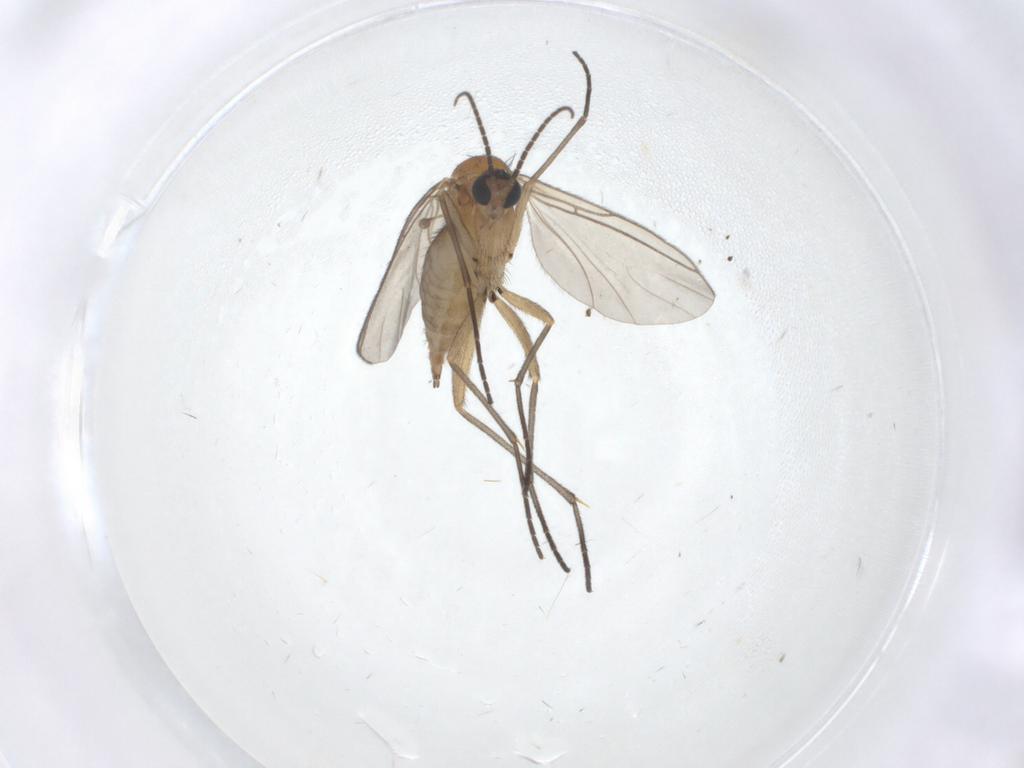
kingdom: Animalia
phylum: Arthropoda
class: Insecta
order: Diptera
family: Sciaridae
